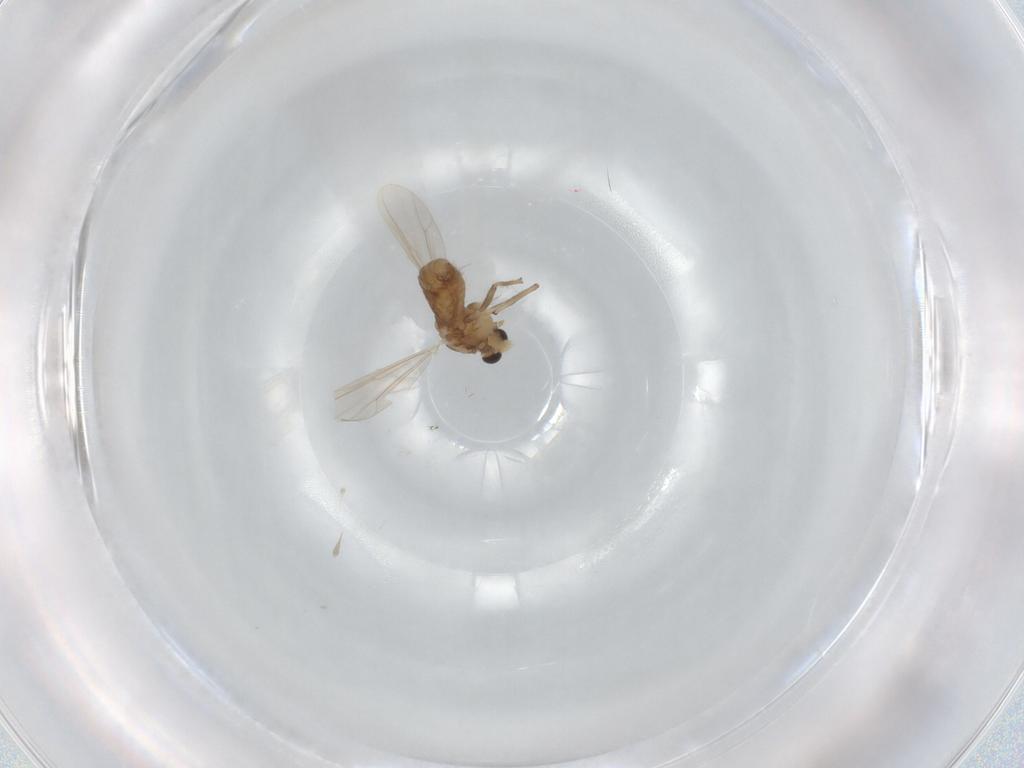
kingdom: Animalia
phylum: Arthropoda
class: Insecta
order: Diptera
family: Chironomidae
